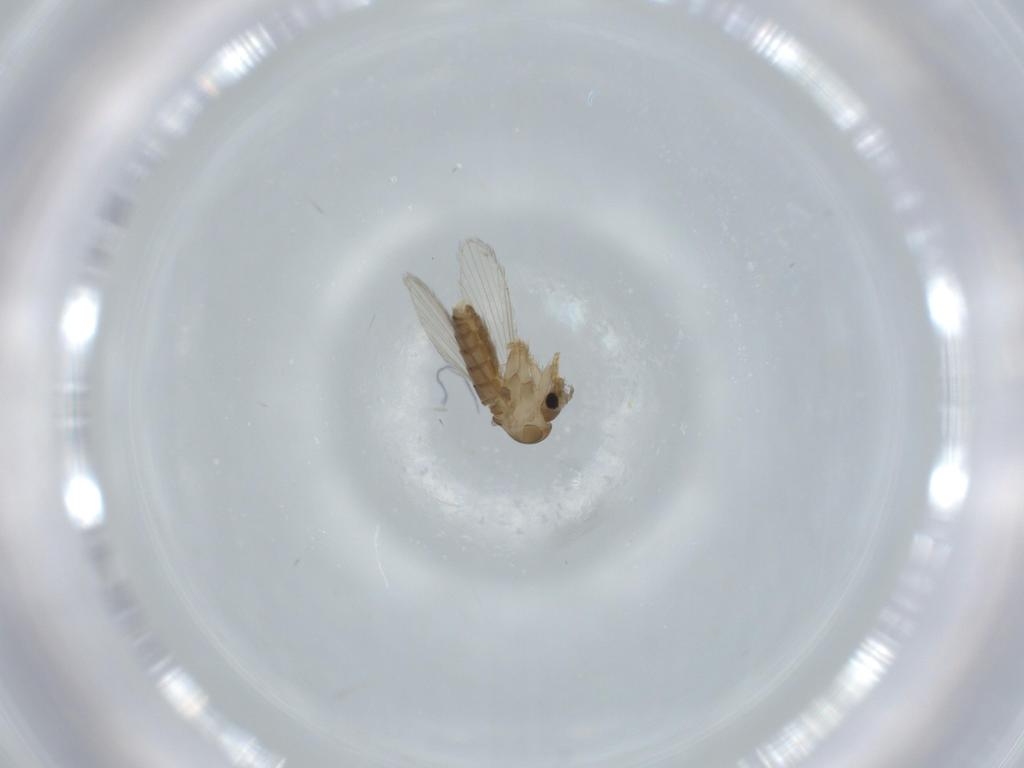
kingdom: Animalia
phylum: Arthropoda
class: Insecta
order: Diptera
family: Psychodidae
